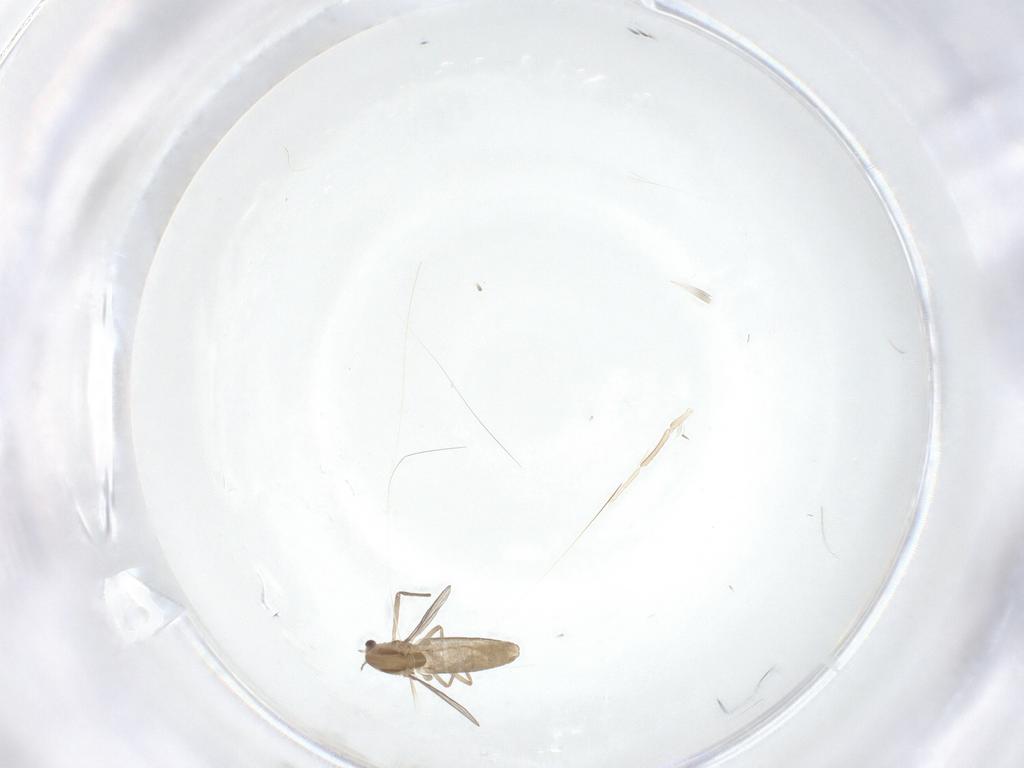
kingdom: Animalia
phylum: Arthropoda
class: Insecta
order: Diptera
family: Chironomidae
